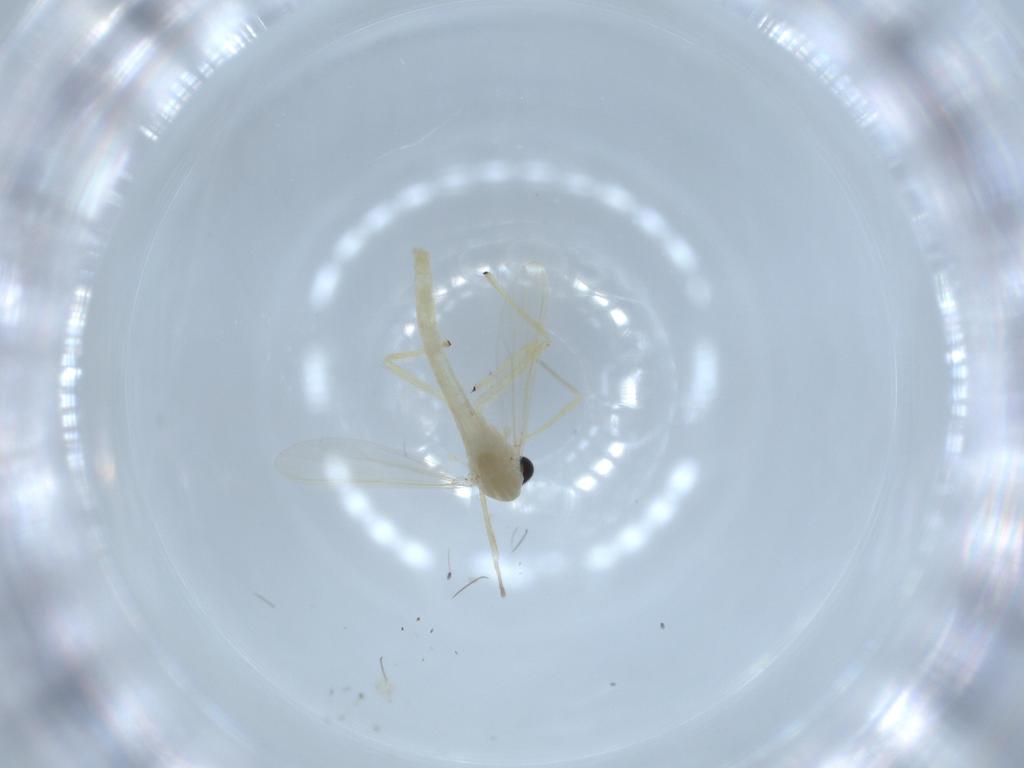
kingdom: Animalia
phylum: Arthropoda
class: Insecta
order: Diptera
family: Chironomidae
